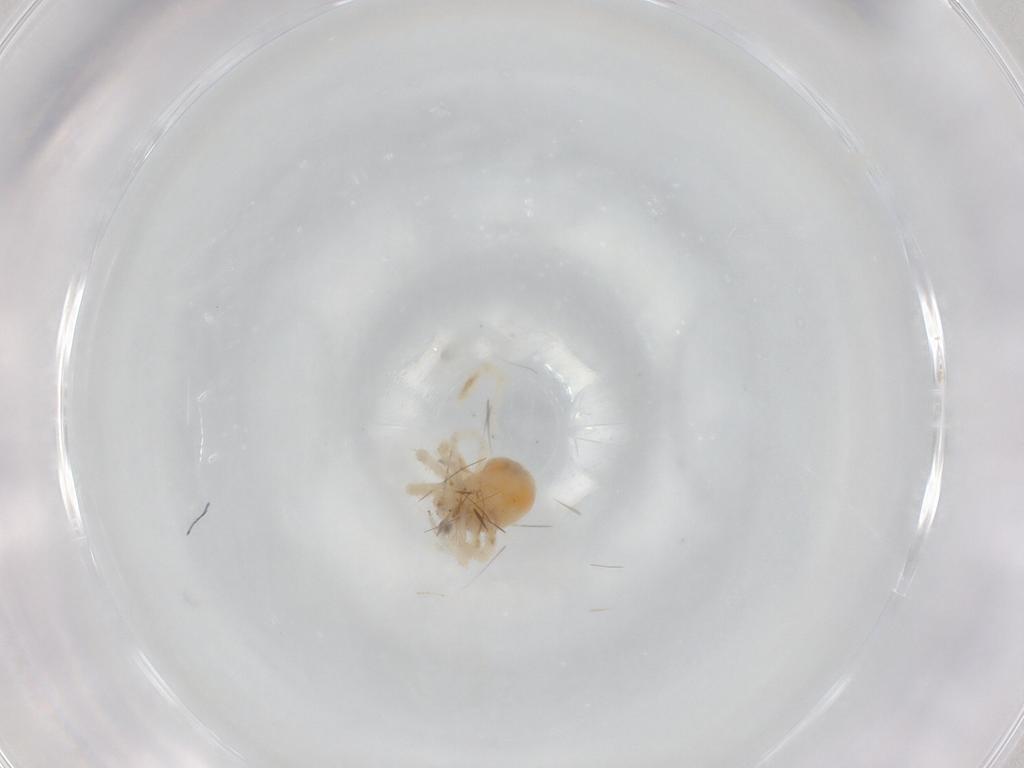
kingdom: Animalia
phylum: Arthropoda
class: Arachnida
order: Trombidiformes
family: Erythraeidae
